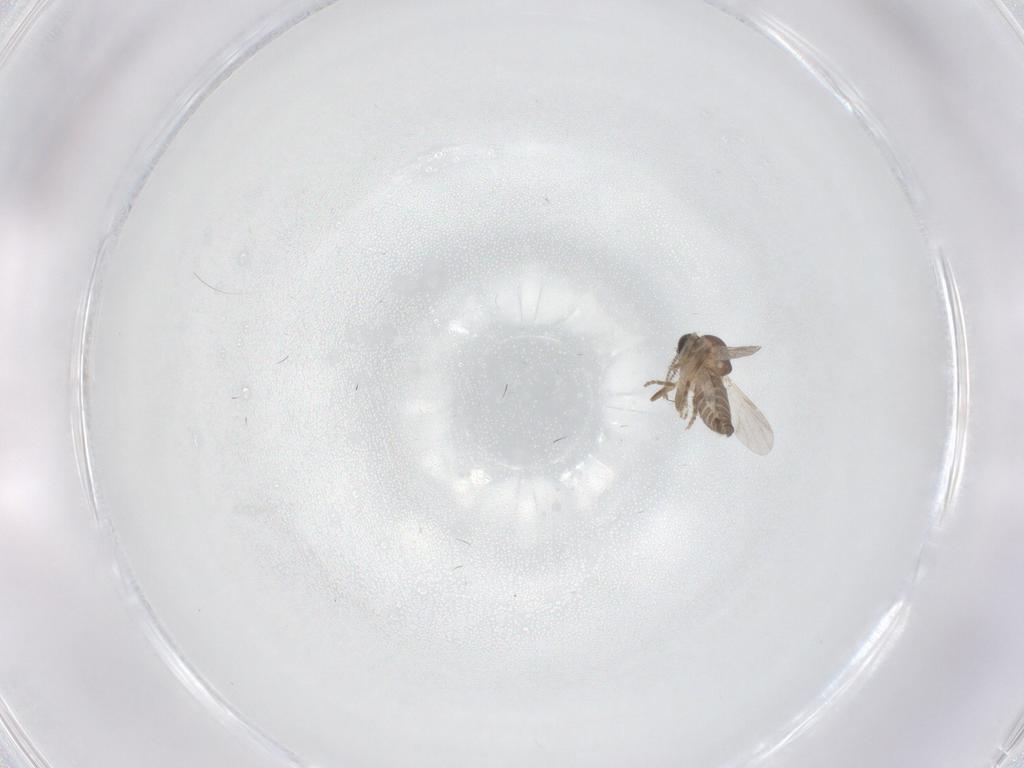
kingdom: Animalia
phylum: Arthropoda
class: Insecta
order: Diptera
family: Ceratopogonidae
